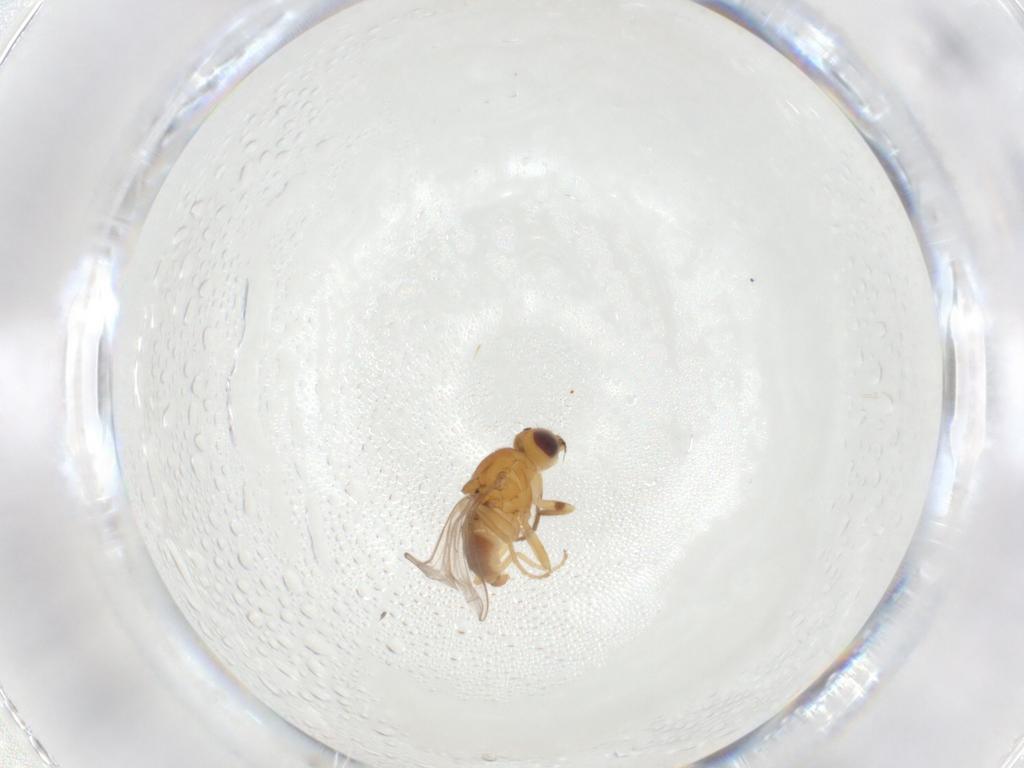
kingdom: Animalia
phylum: Arthropoda
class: Insecta
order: Diptera
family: Chloropidae
